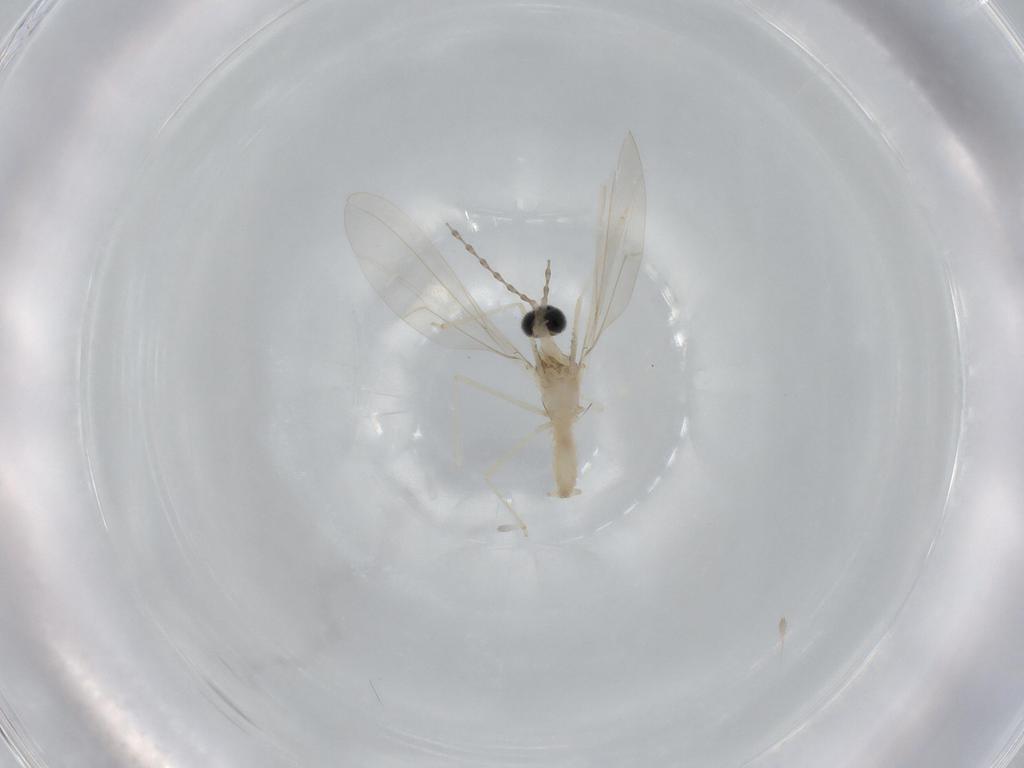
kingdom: Animalia
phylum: Arthropoda
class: Insecta
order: Diptera
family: Cecidomyiidae
